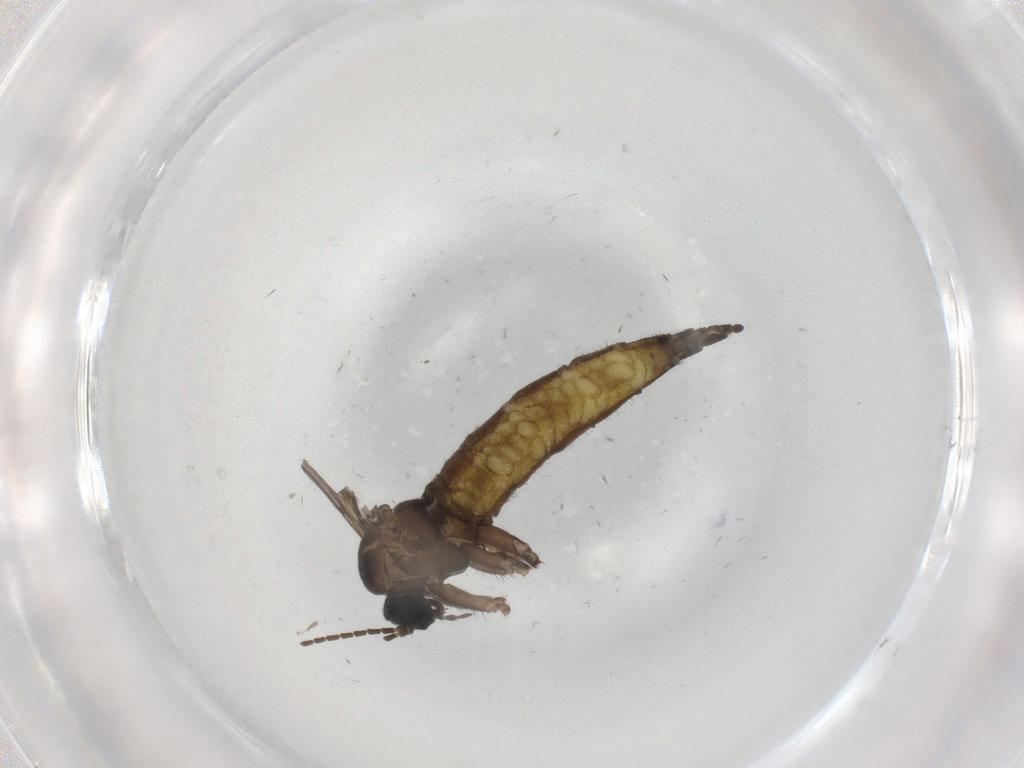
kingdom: Animalia
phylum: Arthropoda
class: Insecta
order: Diptera
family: Sciaridae
